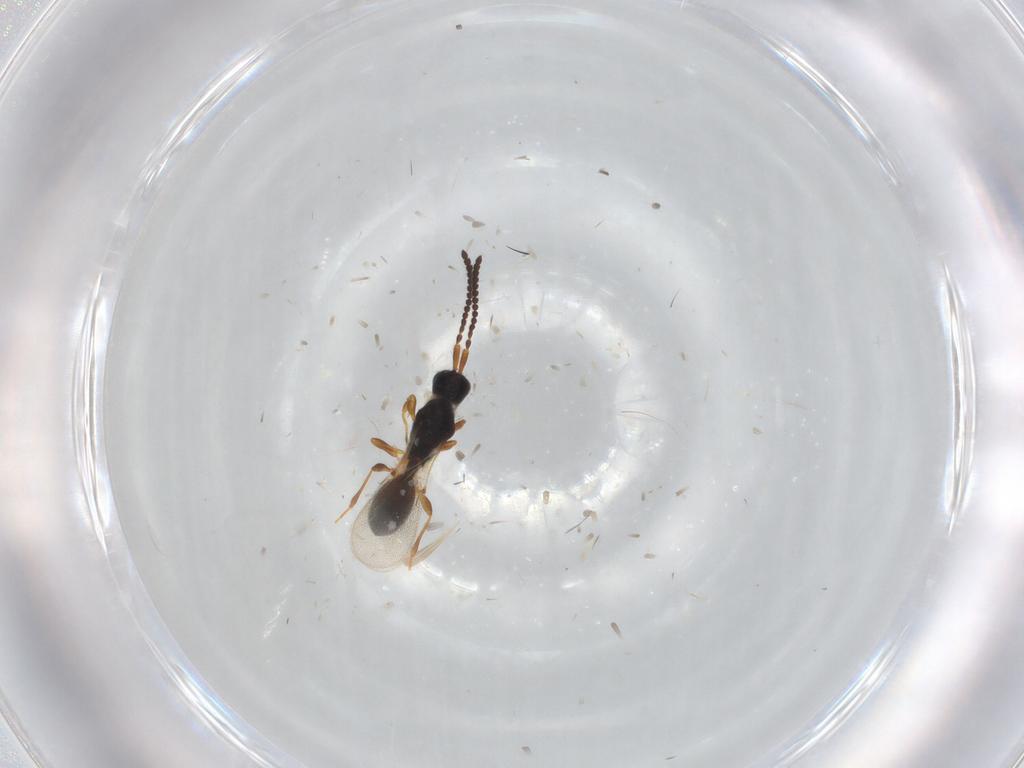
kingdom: Animalia
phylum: Arthropoda
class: Insecta
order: Hymenoptera
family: Diapriidae
